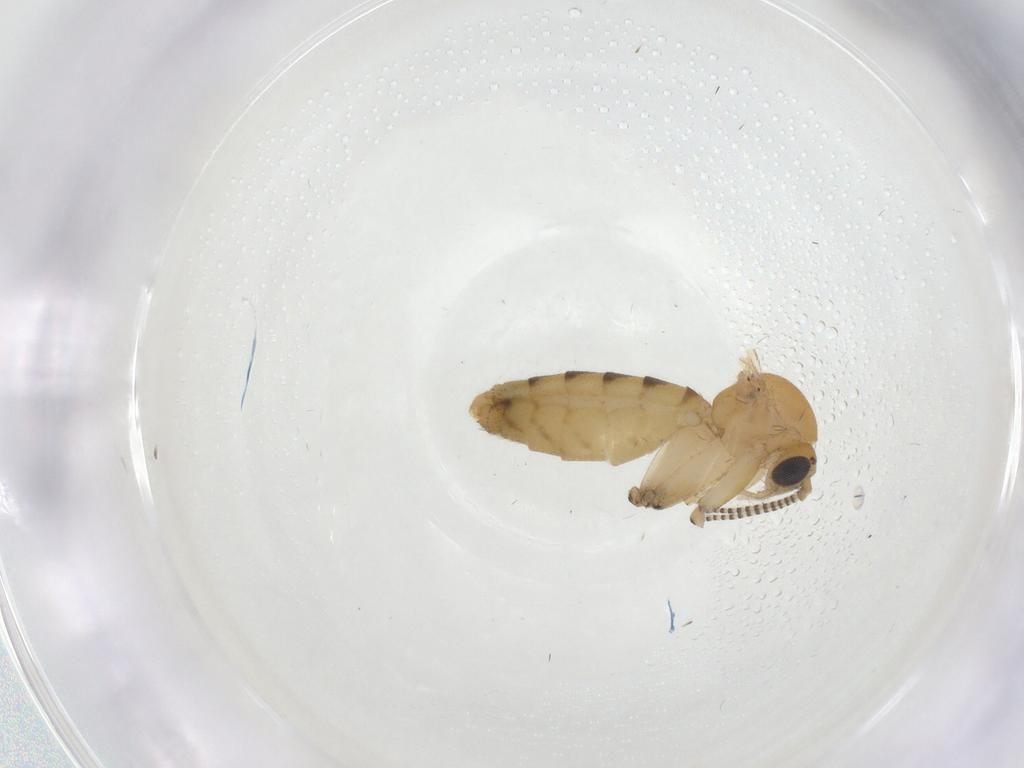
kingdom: Animalia
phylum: Arthropoda
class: Insecta
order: Diptera
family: Mycetophilidae
